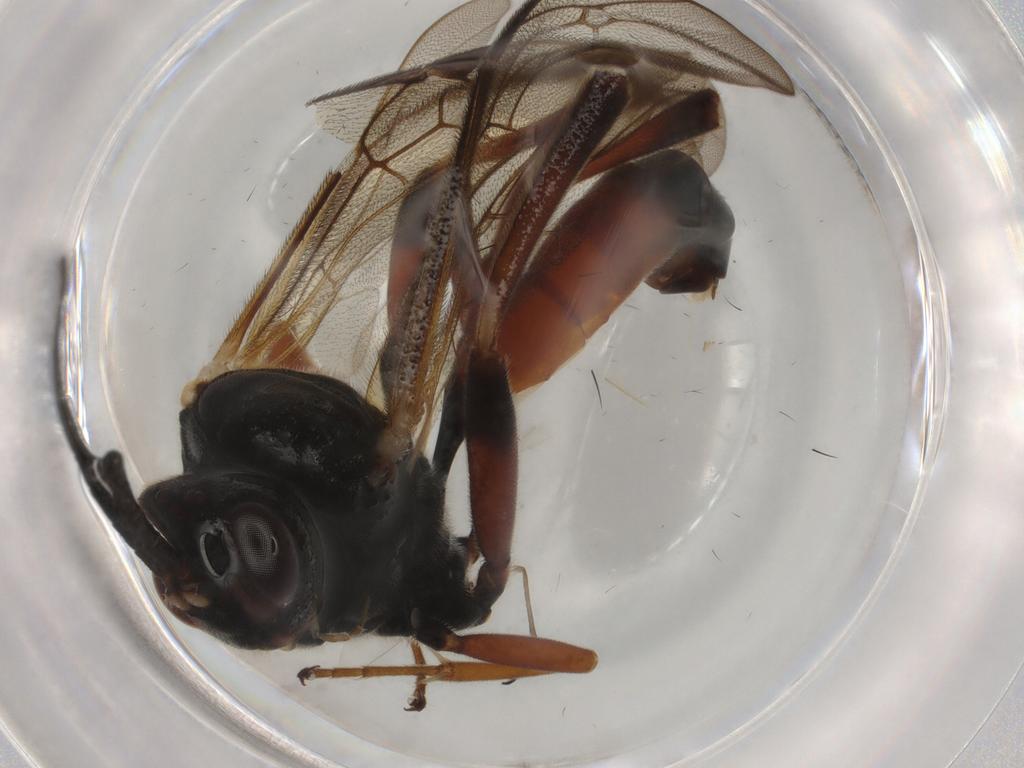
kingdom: Animalia
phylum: Arthropoda
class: Insecta
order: Hymenoptera
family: Ichneumonidae
